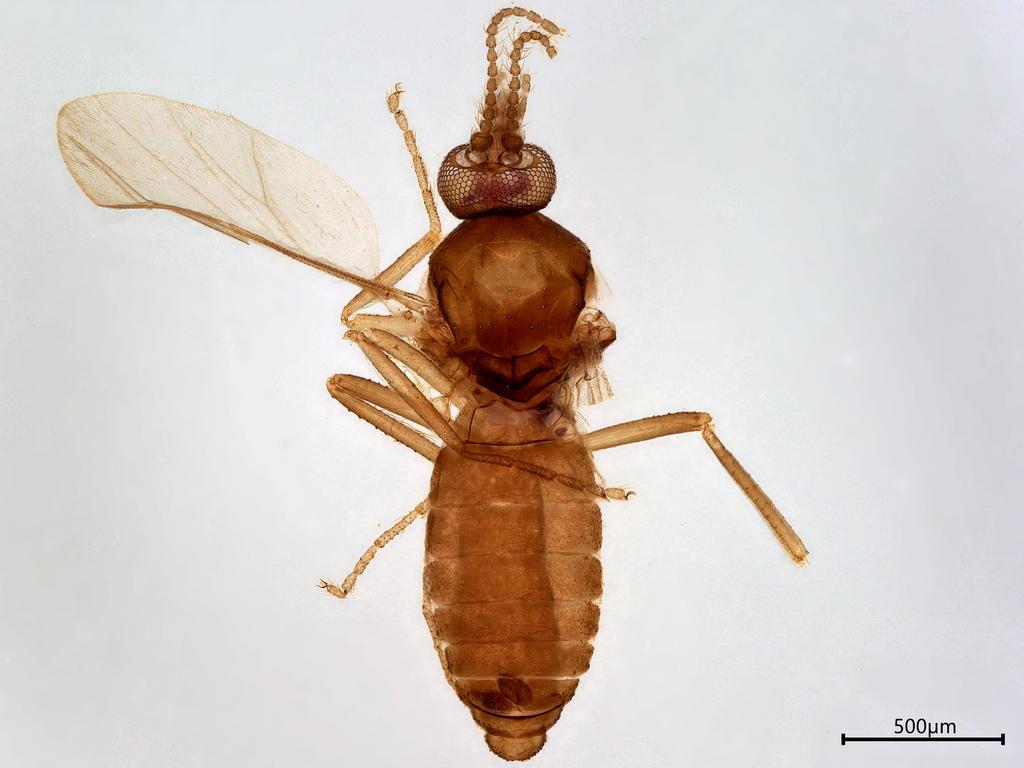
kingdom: Animalia
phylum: Arthropoda
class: Insecta
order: Diptera
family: Ceratopogonidae
